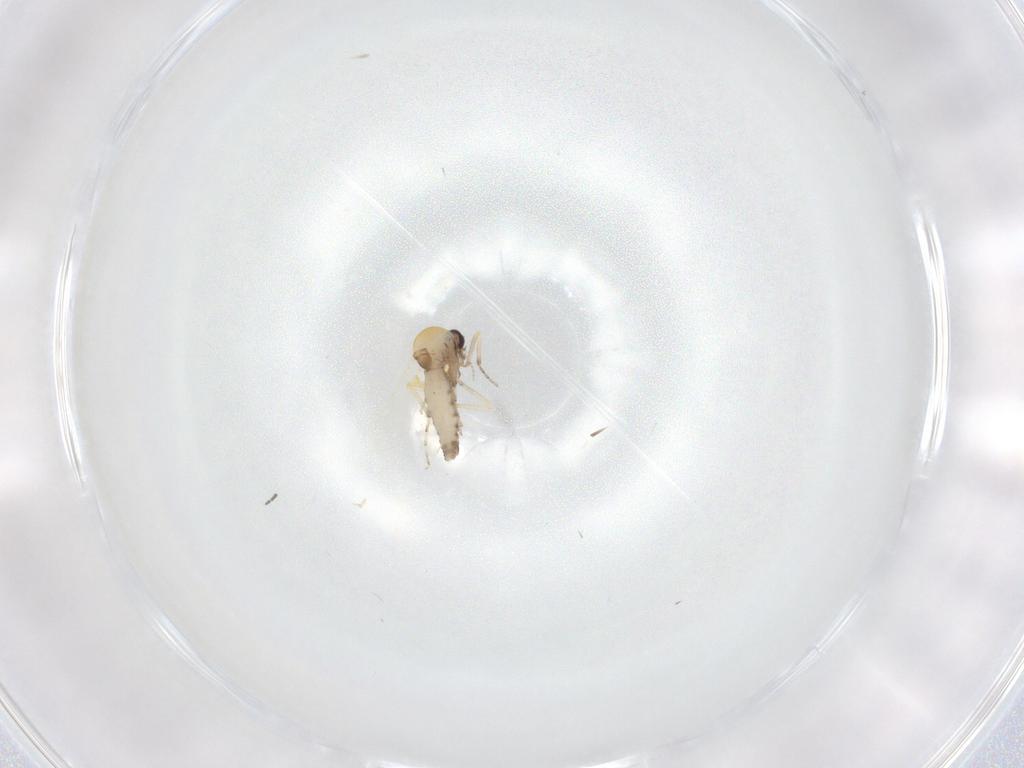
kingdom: Animalia
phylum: Arthropoda
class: Insecta
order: Diptera
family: Ceratopogonidae
